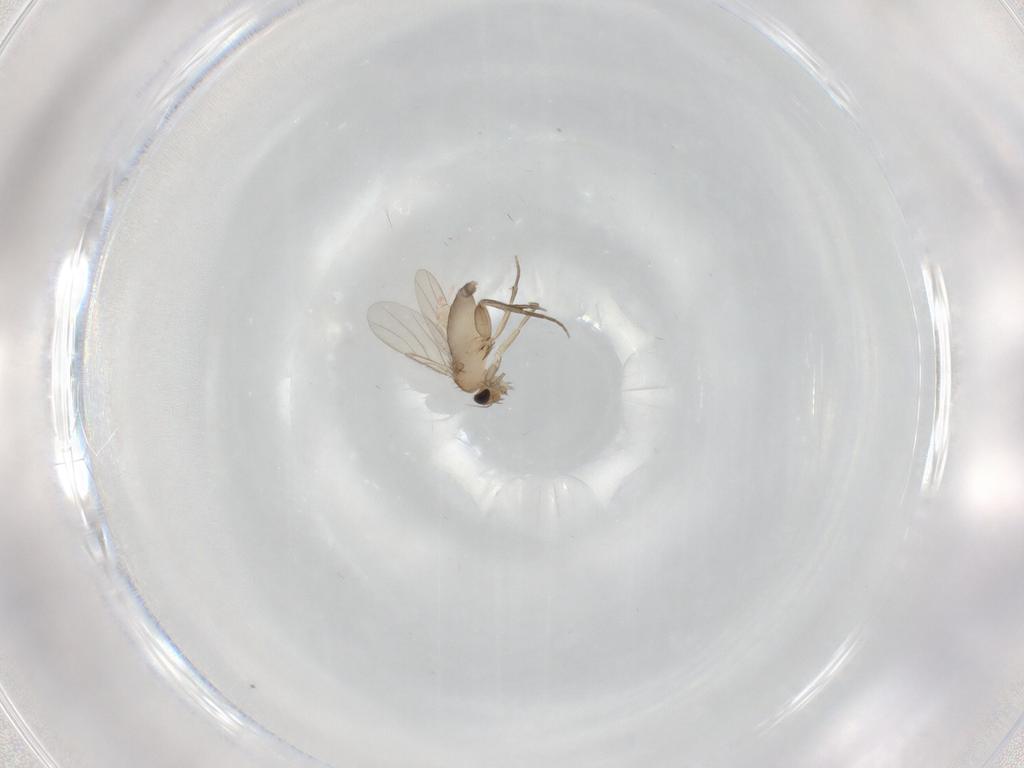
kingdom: Animalia
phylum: Arthropoda
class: Insecta
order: Diptera
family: Phoridae
